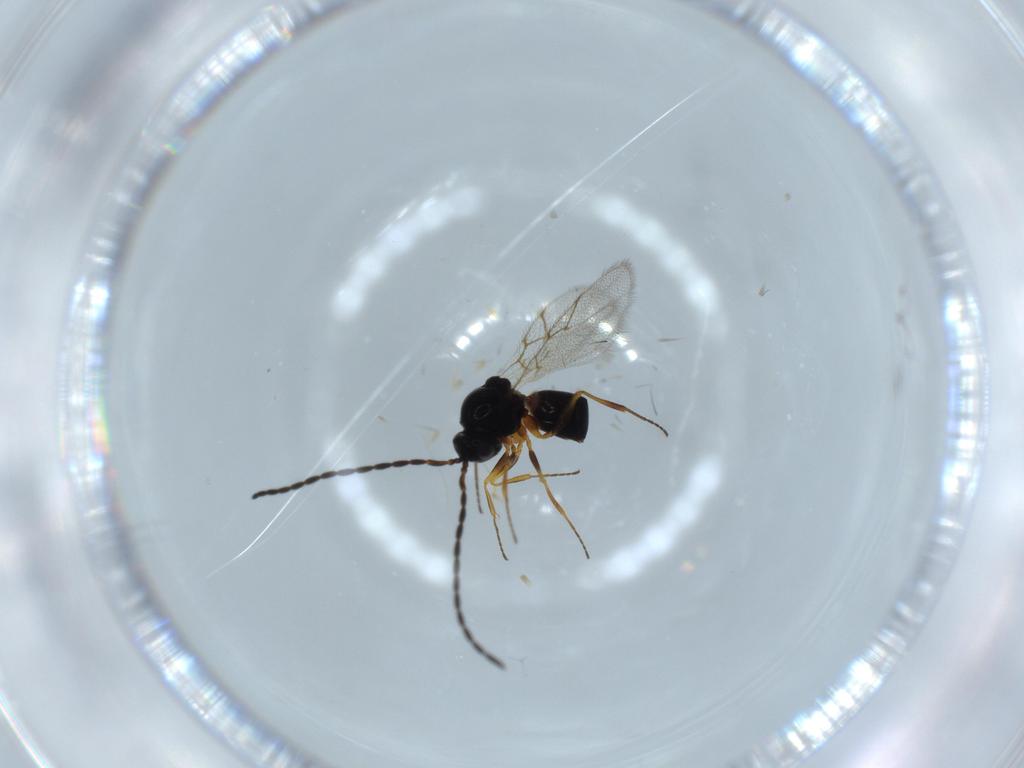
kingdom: Animalia
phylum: Arthropoda
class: Insecta
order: Hymenoptera
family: Figitidae
